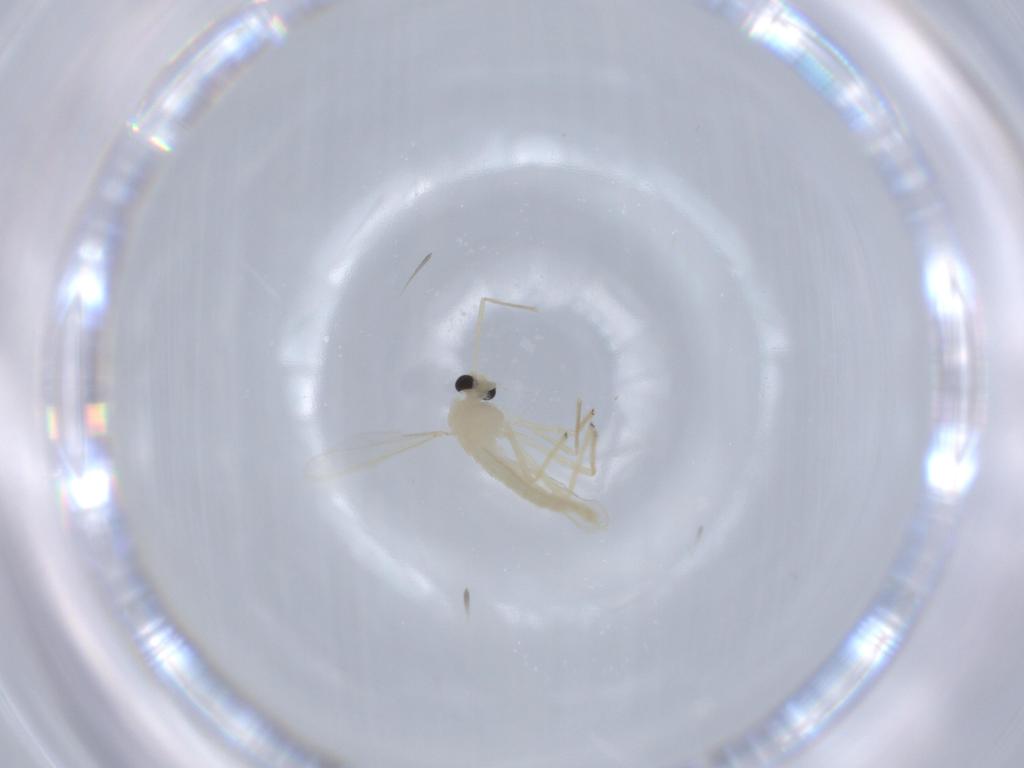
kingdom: Animalia
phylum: Arthropoda
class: Insecta
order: Diptera
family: Chironomidae
